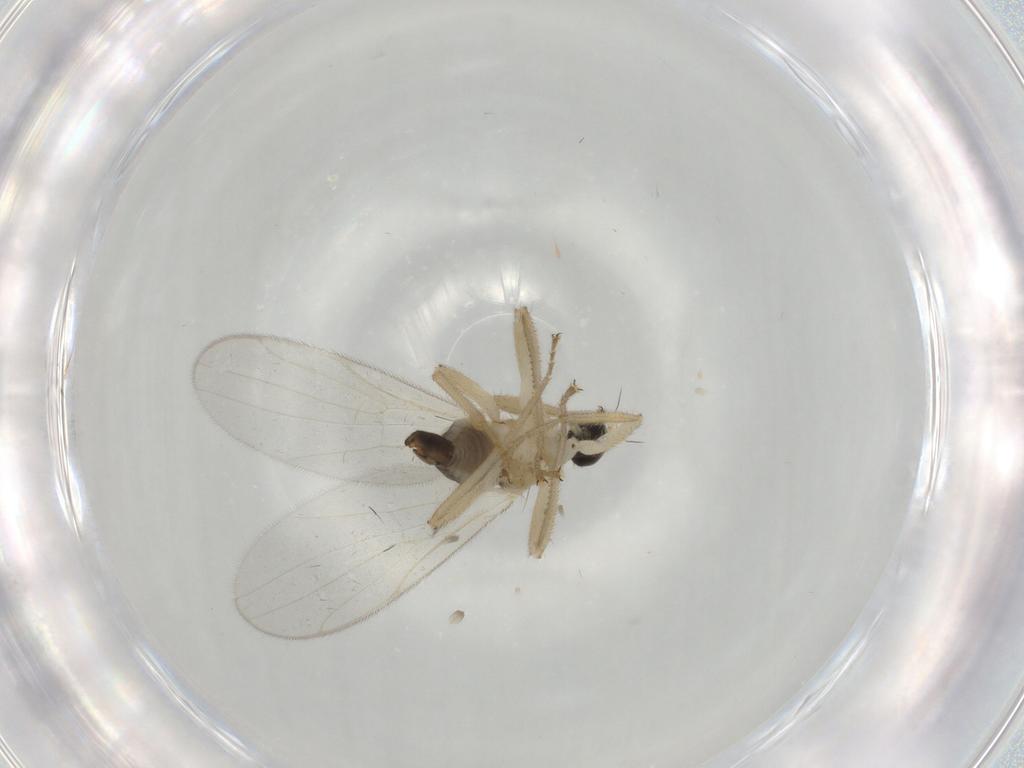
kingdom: Animalia
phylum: Arthropoda
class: Insecta
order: Diptera
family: Hybotidae
